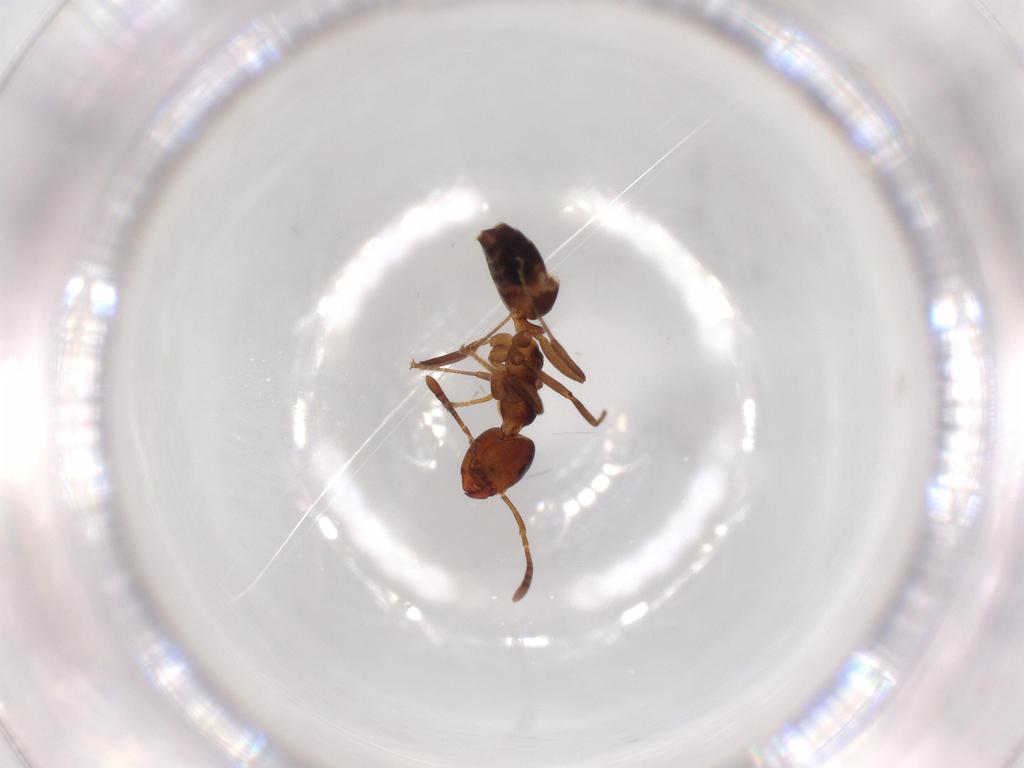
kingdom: Animalia
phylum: Arthropoda
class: Insecta
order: Hymenoptera
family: Formicidae
